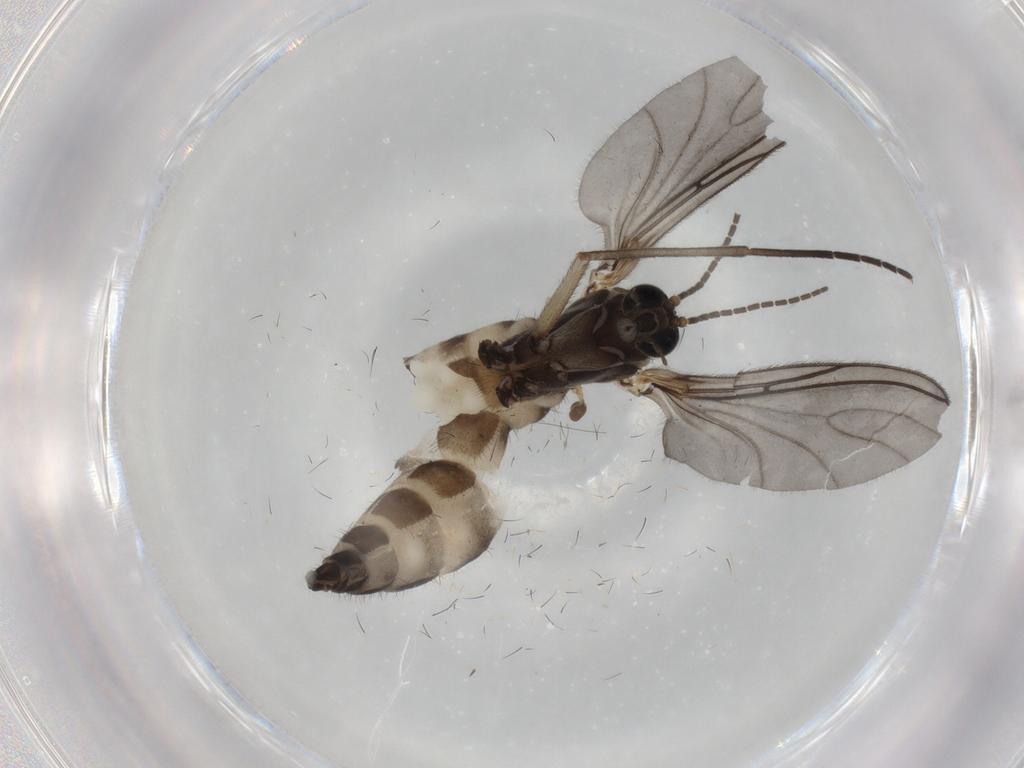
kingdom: Animalia
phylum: Arthropoda
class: Insecta
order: Diptera
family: Sciaridae
